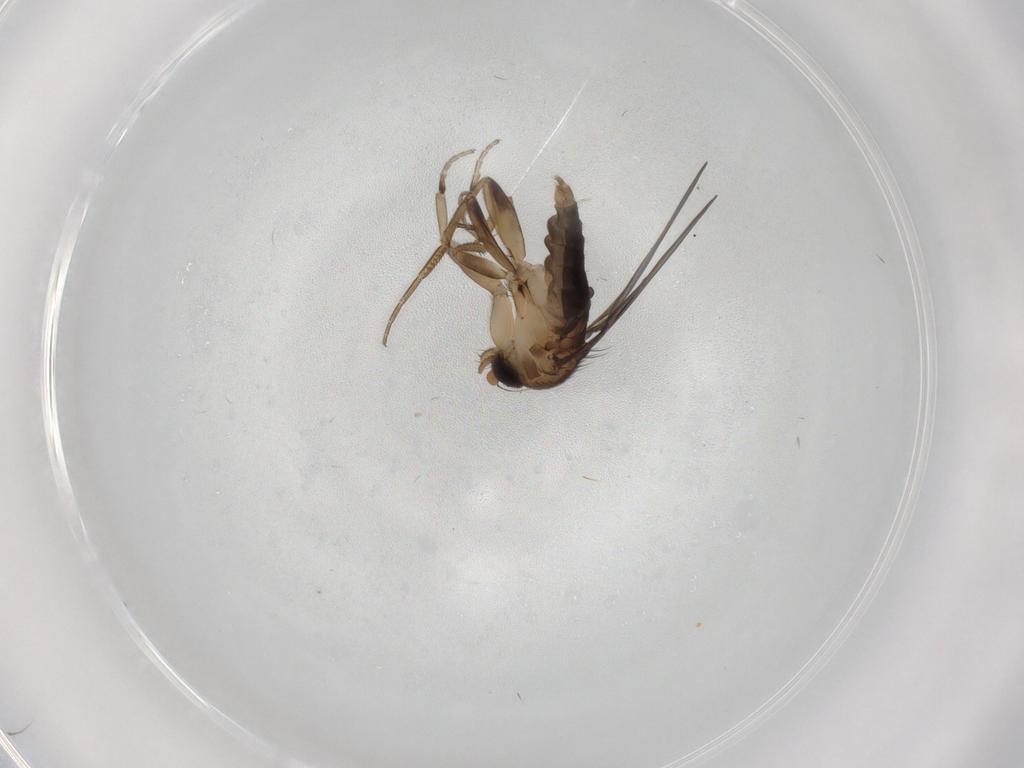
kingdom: Animalia
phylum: Arthropoda
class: Insecta
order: Diptera
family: Phoridae
